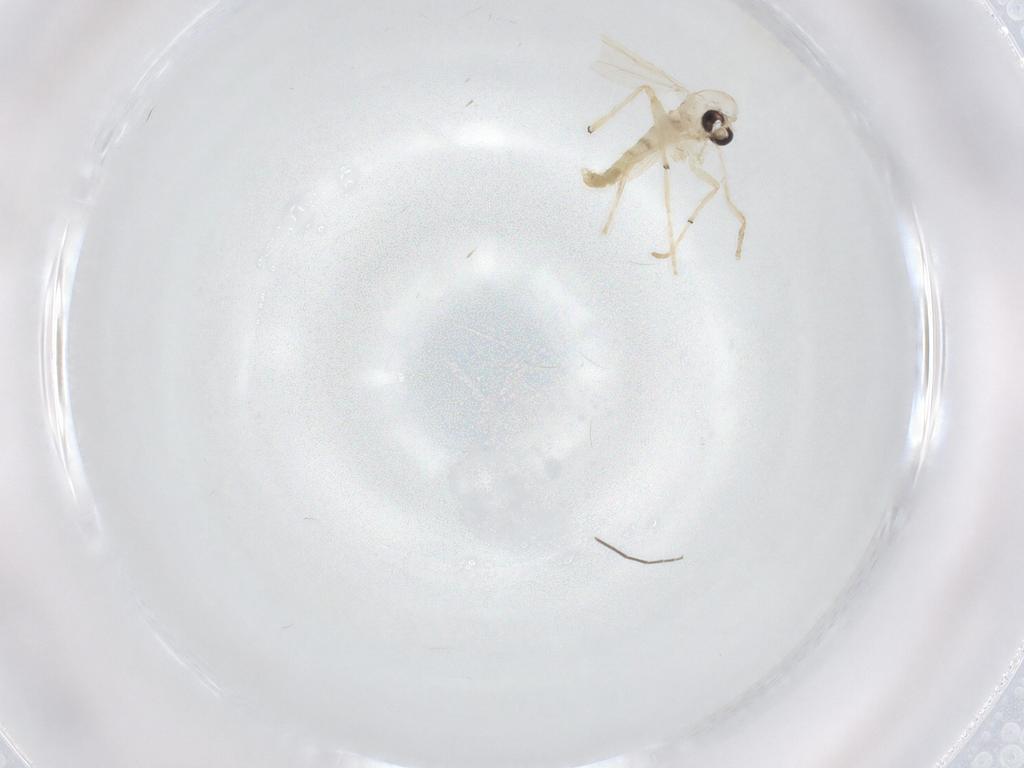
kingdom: Animalia
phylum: Arthropoda
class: Insecta
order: Diptera
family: Chironomidae
